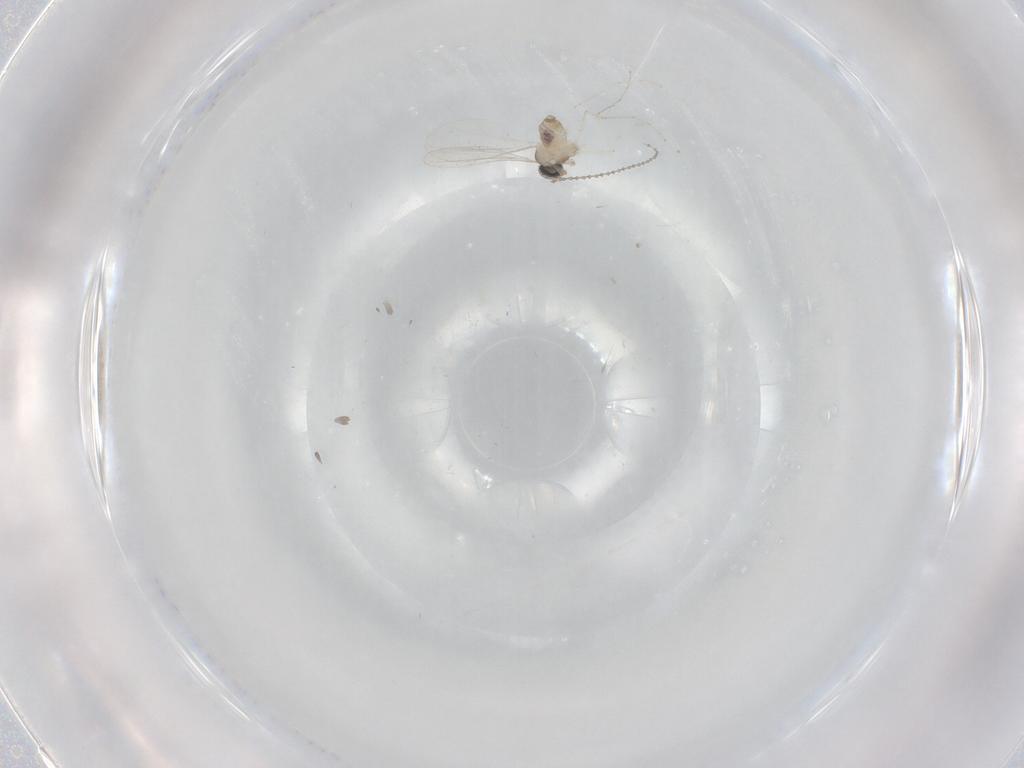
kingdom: Animalia
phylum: Arthropoda
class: Insecta
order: Diptera
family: Cecidomyiidae
